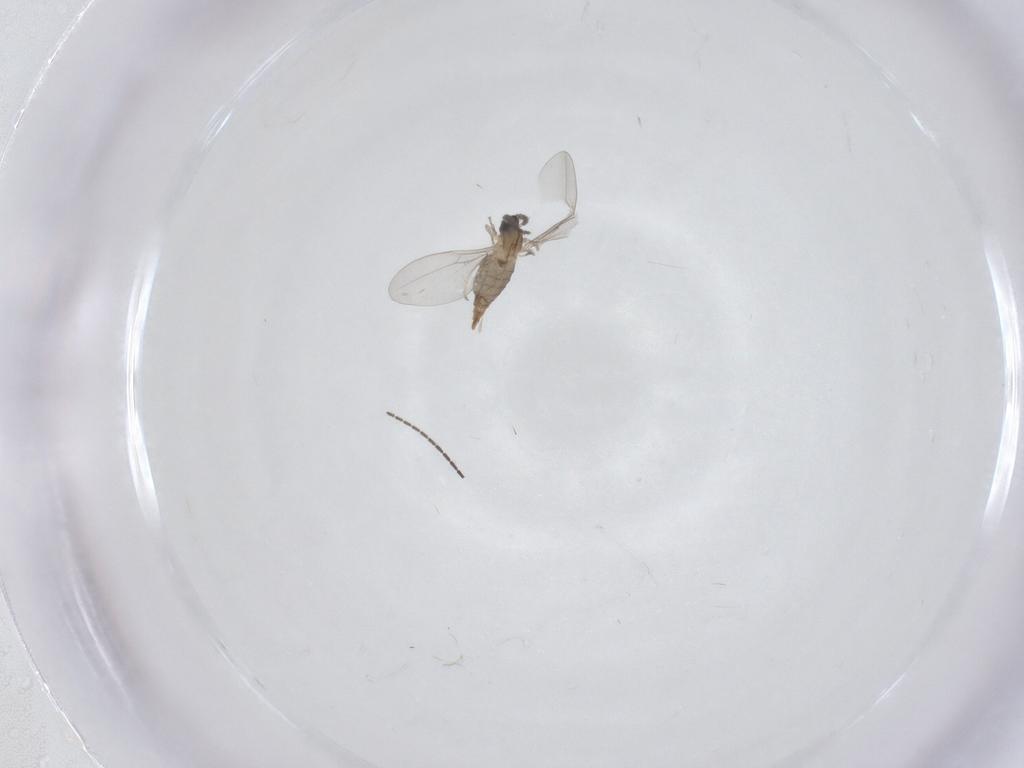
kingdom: Animalia
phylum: Arthropoda
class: Insecta
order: Diptera
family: Sciaridae
